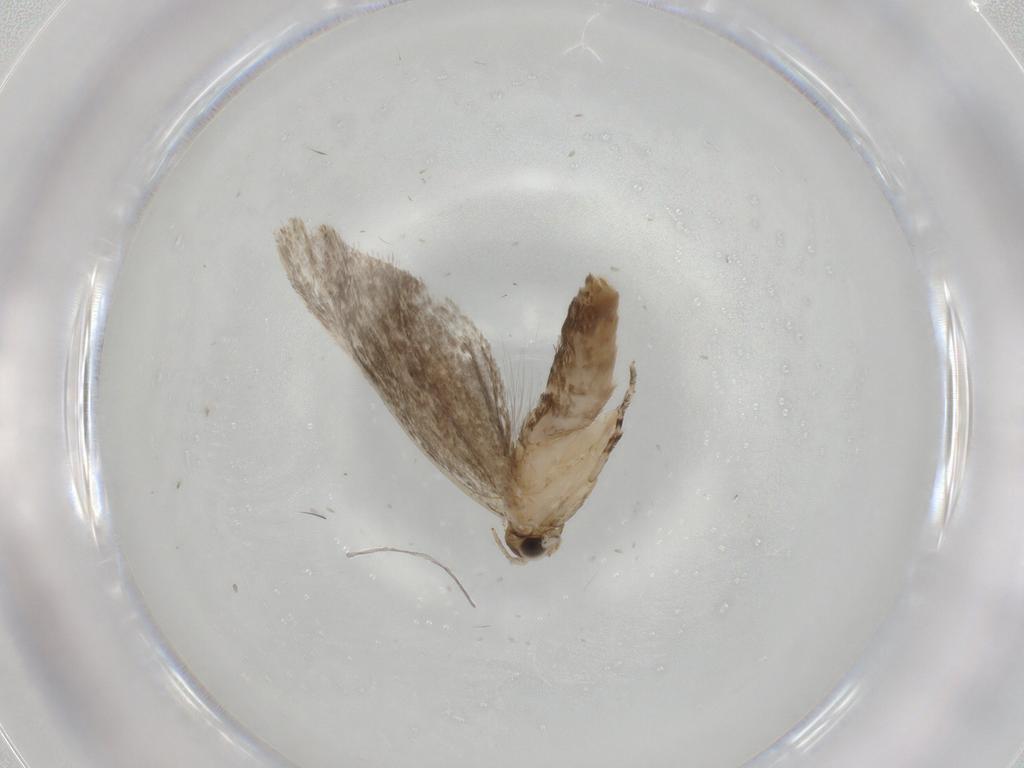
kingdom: Animalia
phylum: Arthropoda
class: Insecta
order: Lepidoptera
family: Tineidae
